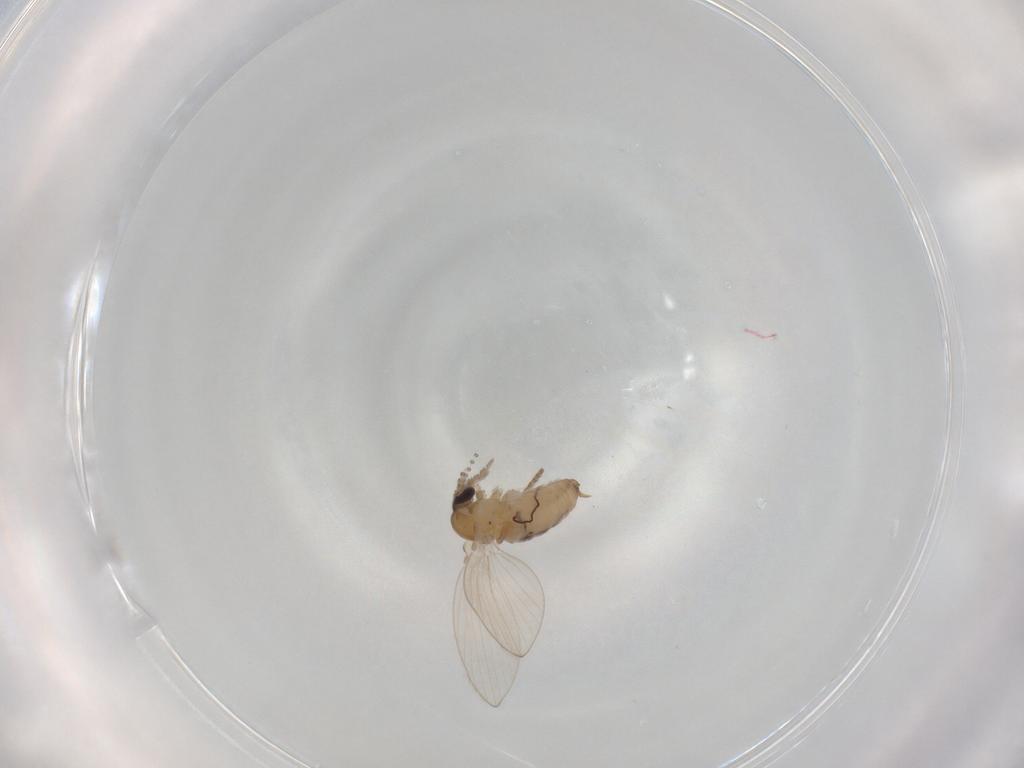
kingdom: Animalia
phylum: Arthropoda
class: Insecta
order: Diptera
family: Psychodidae
